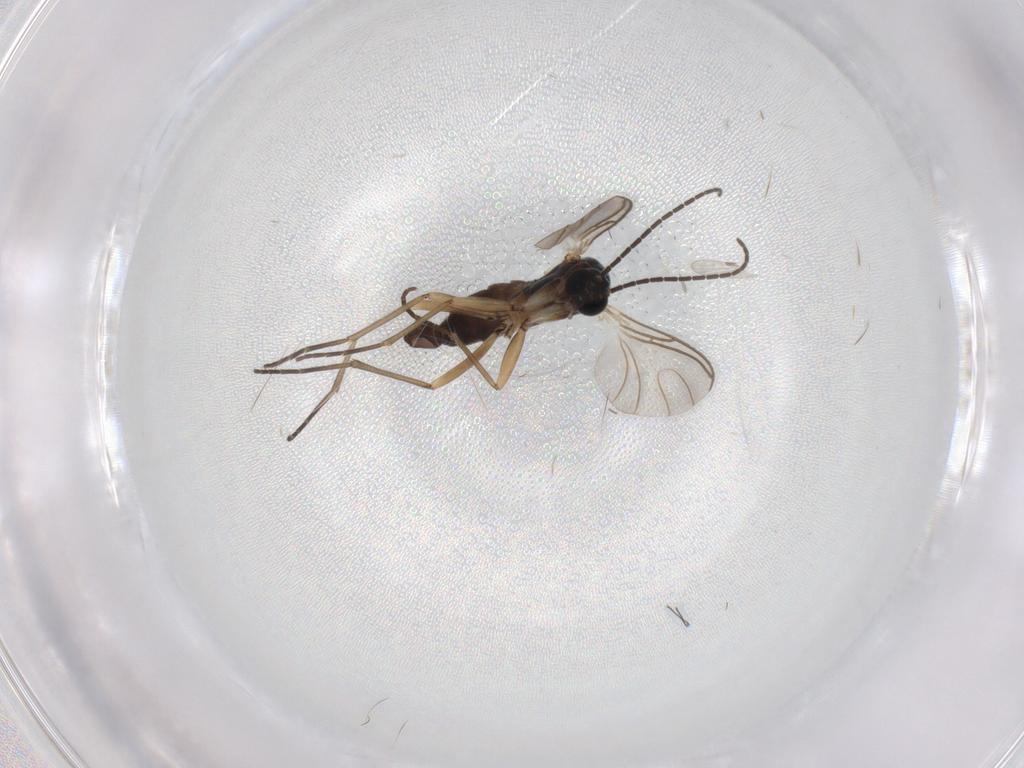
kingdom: Animalia
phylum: Arthropoda
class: Insecta
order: Diptera
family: Sciaridae
